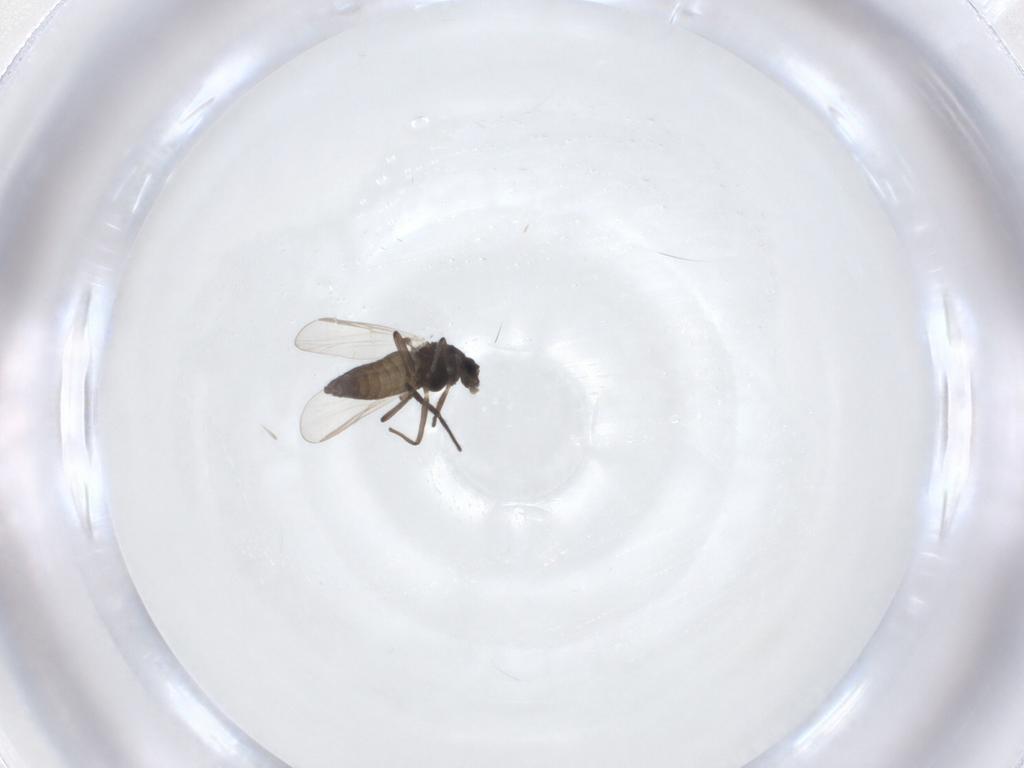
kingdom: Animalia
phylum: Arthropoda
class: Insecta
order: Diptera
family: Chironomidae
